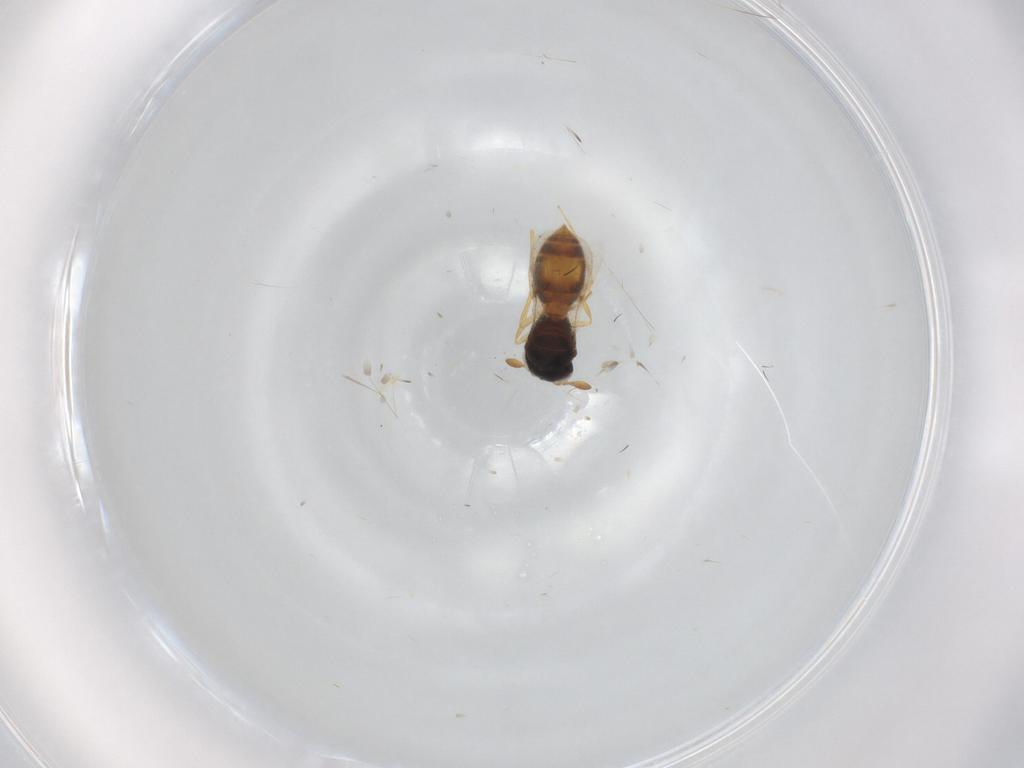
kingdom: Animalia
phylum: Arthropoda
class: Insecta
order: Hymenoptera
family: Scelionidae
